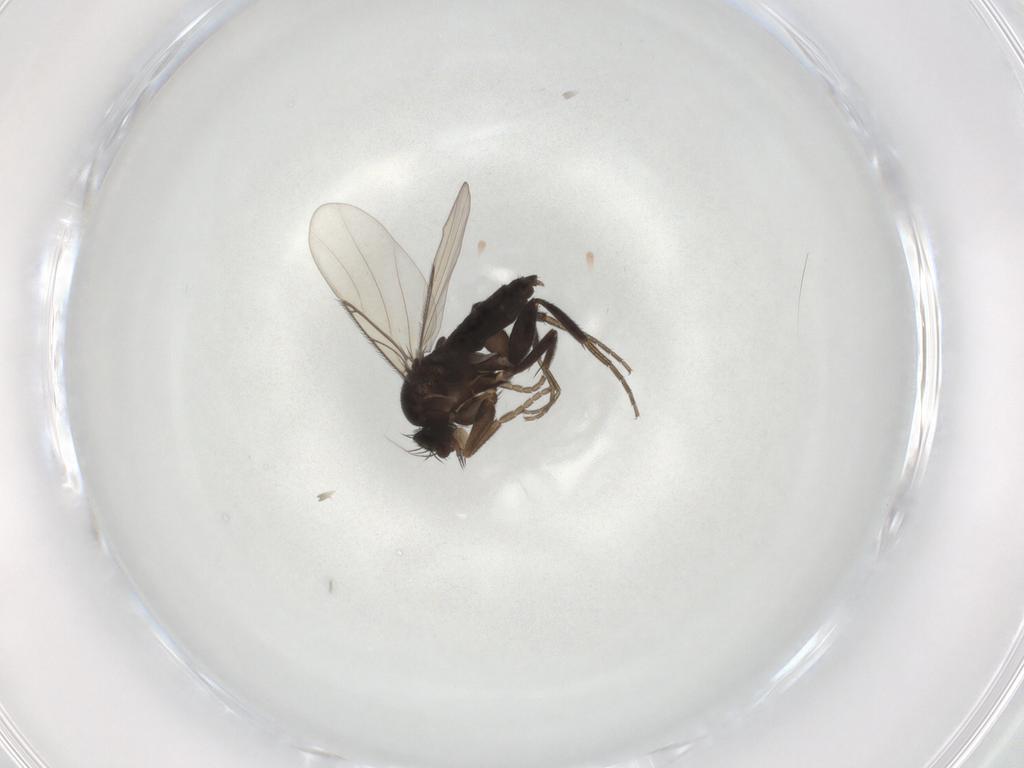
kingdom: Animalia
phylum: Arthropoda
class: Insecta
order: Diptera
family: Phoridae
